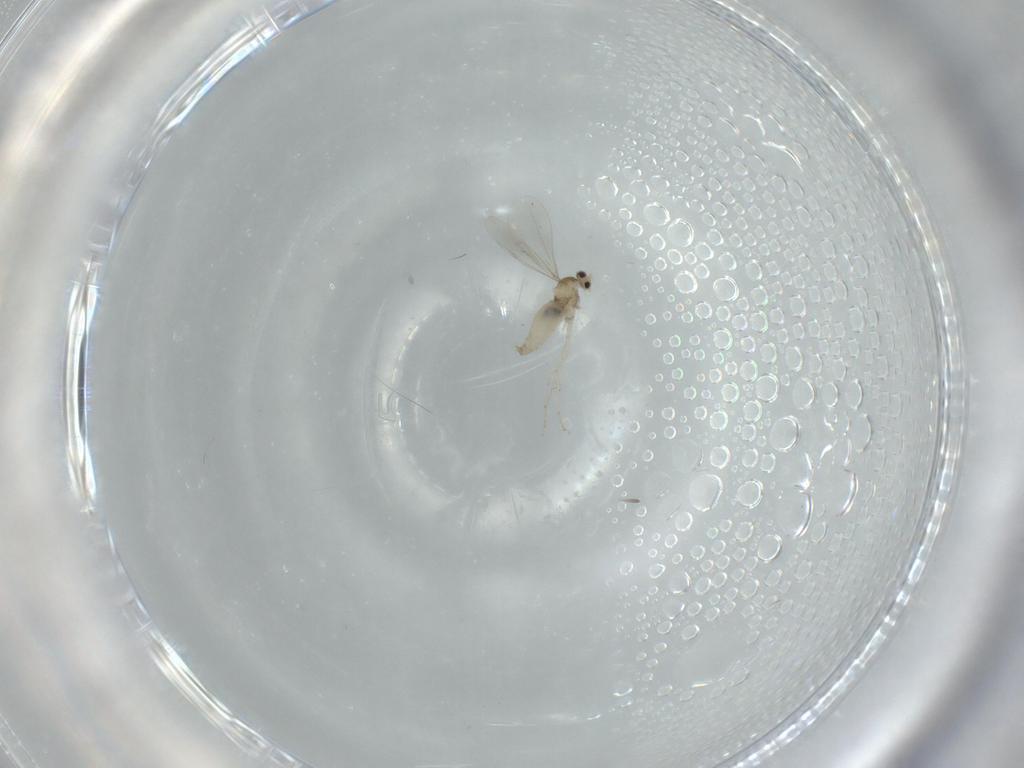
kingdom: Animalia
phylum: Arthropoda
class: Insecta
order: Diptera
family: Cecidomyiidae
